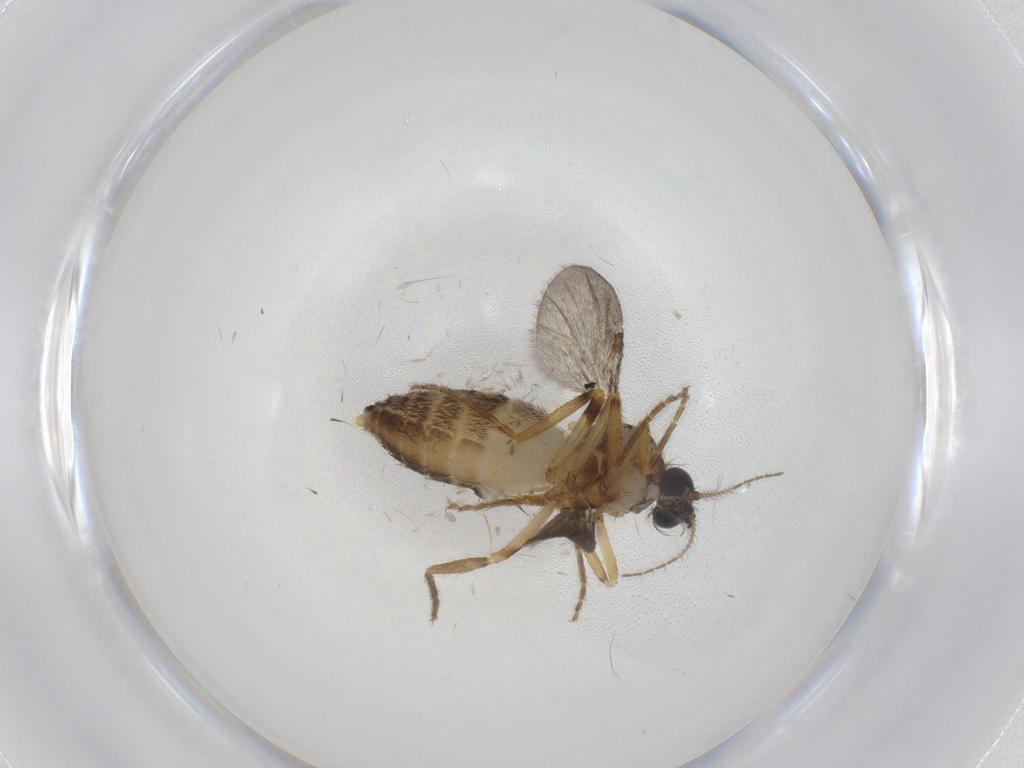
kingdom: Animalia
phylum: Arthropoda
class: Insecta
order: Diptera
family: Ceratopogonidae
